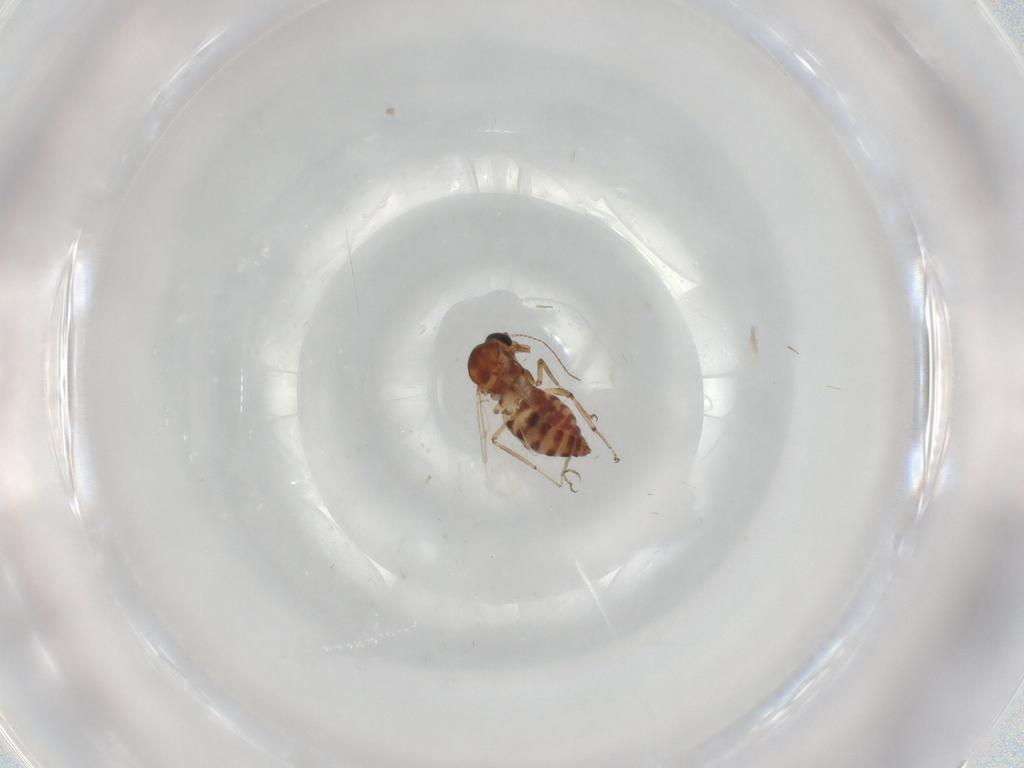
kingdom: Animalia
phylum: Arthropoda
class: Insecta
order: Diptera
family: Cecidomyiidae
